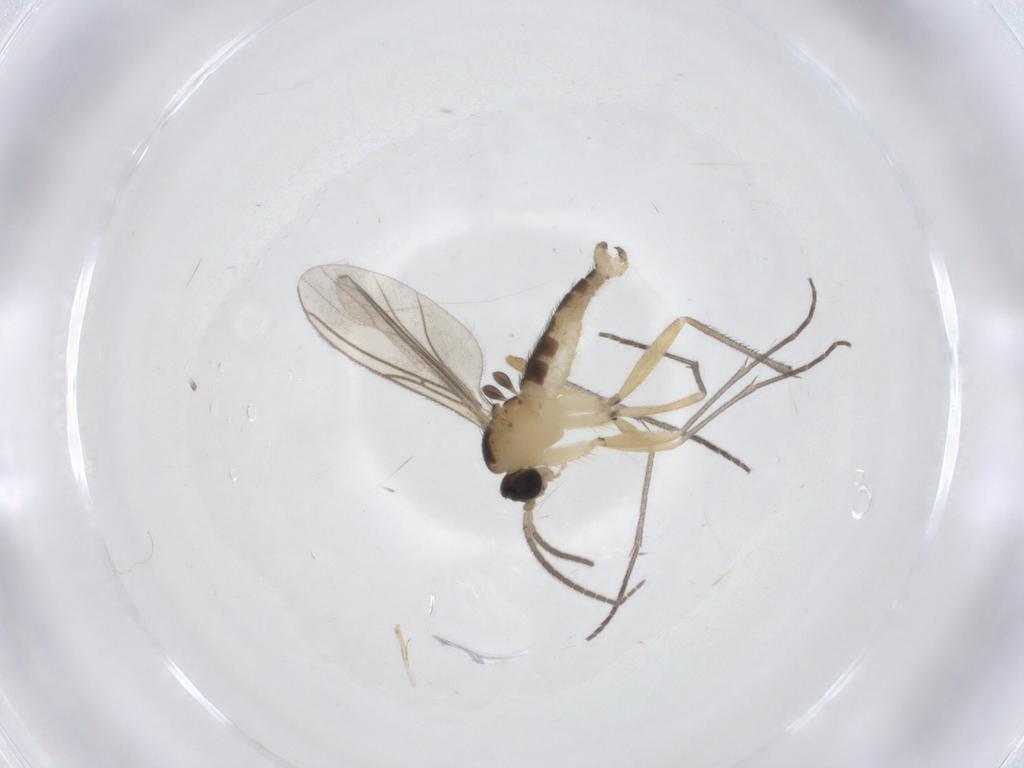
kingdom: Animalia
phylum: Arthropoda
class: Insecta
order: Diptera
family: Sciaridae
